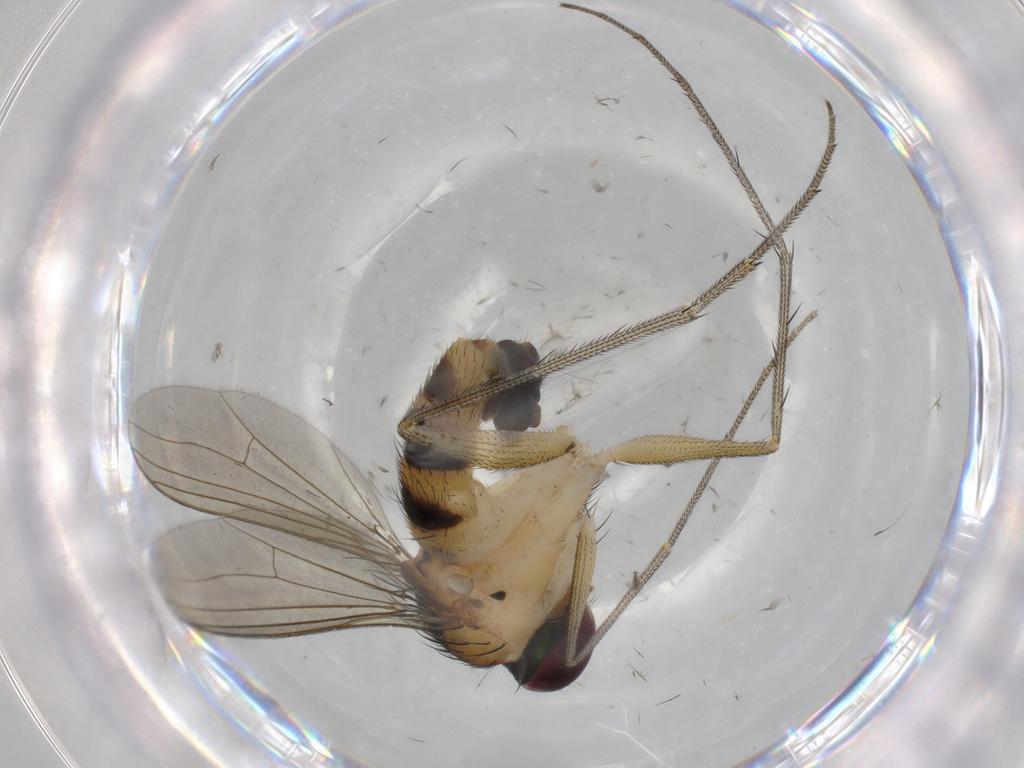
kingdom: Animalia
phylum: Arthropoda
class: Insecta
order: Diptera
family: Sciaridae
